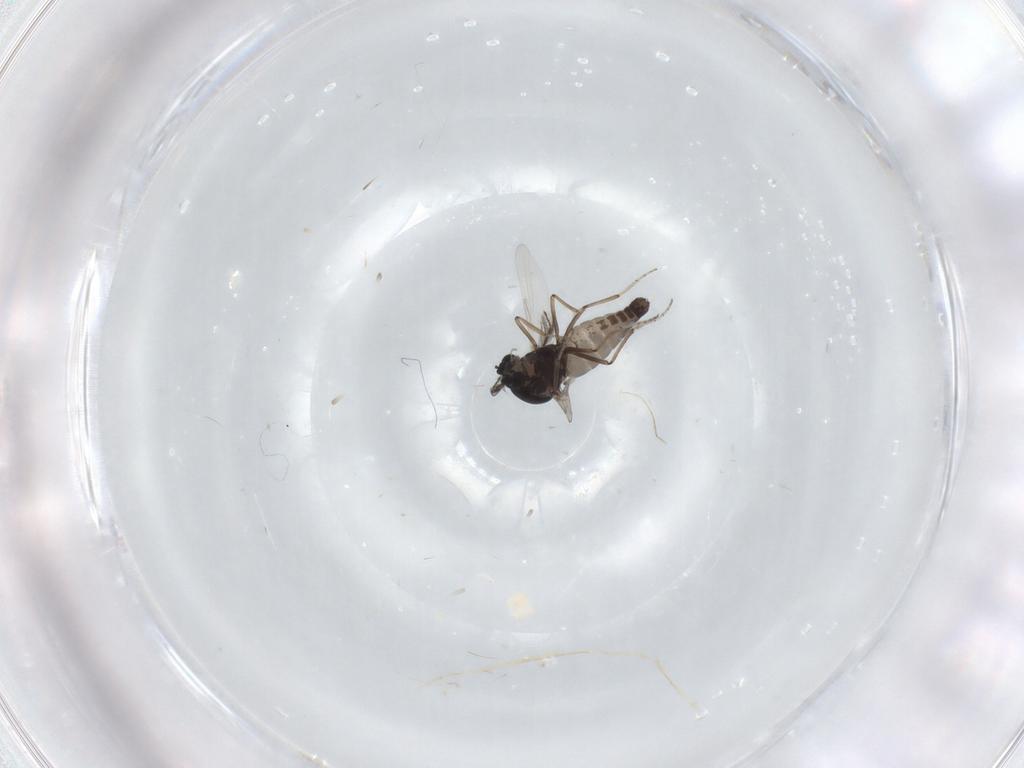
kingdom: Animalia
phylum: Arthropoda
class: Insecta
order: Diptera
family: Ceratopogonidae
